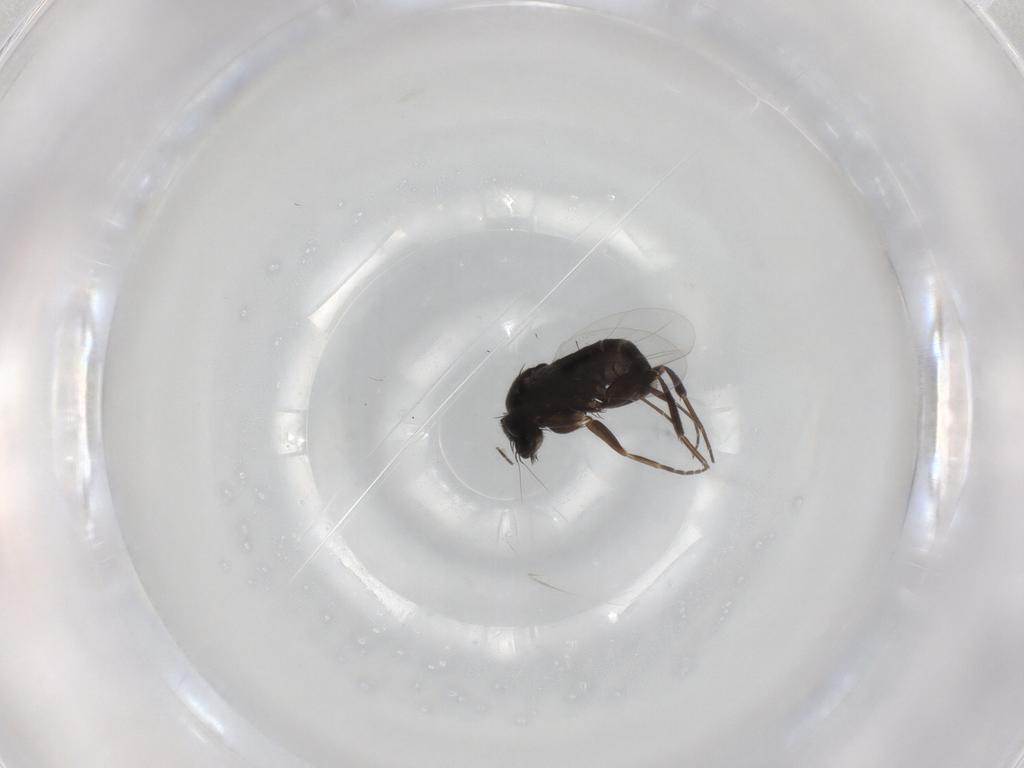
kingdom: Animalia
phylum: Arthropoda
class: Insecta
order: Diptera
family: Phoridae
